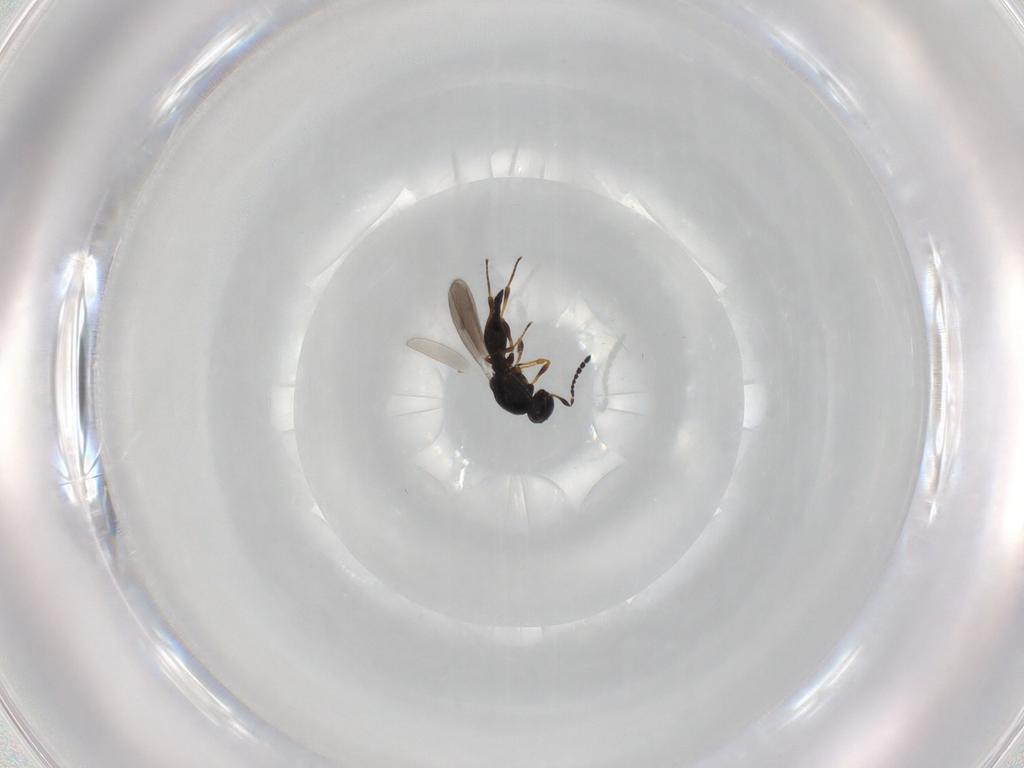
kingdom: Animalia
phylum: Arthropoda
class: Insecta
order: Hymenoptera
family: Platygastridae
